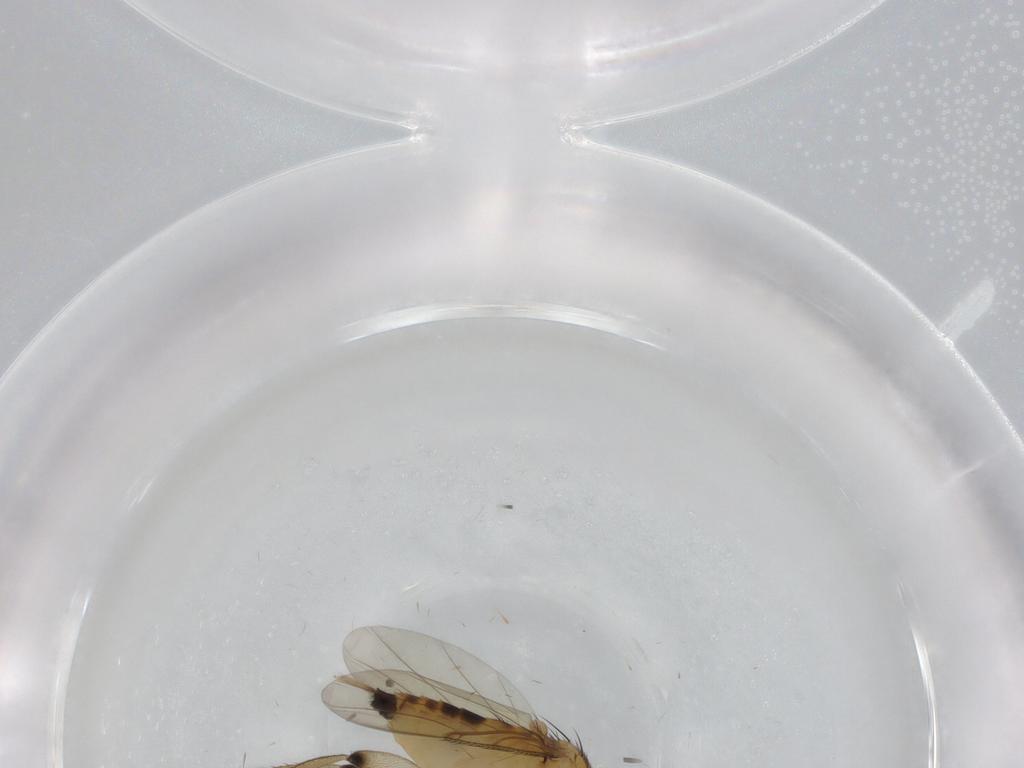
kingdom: Animalia
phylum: Arthropoda
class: Insecta
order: Diptera
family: Phoridae
